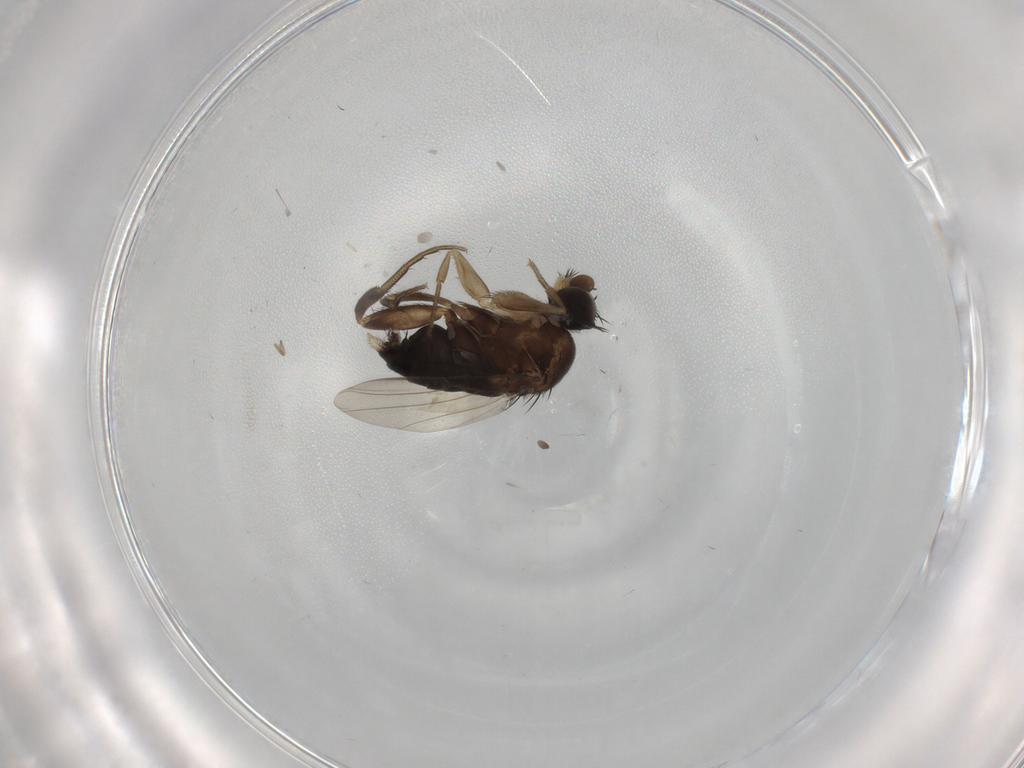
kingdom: Animalia
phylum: Arthropoda
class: Insecta
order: Diptera
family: Phoridae
